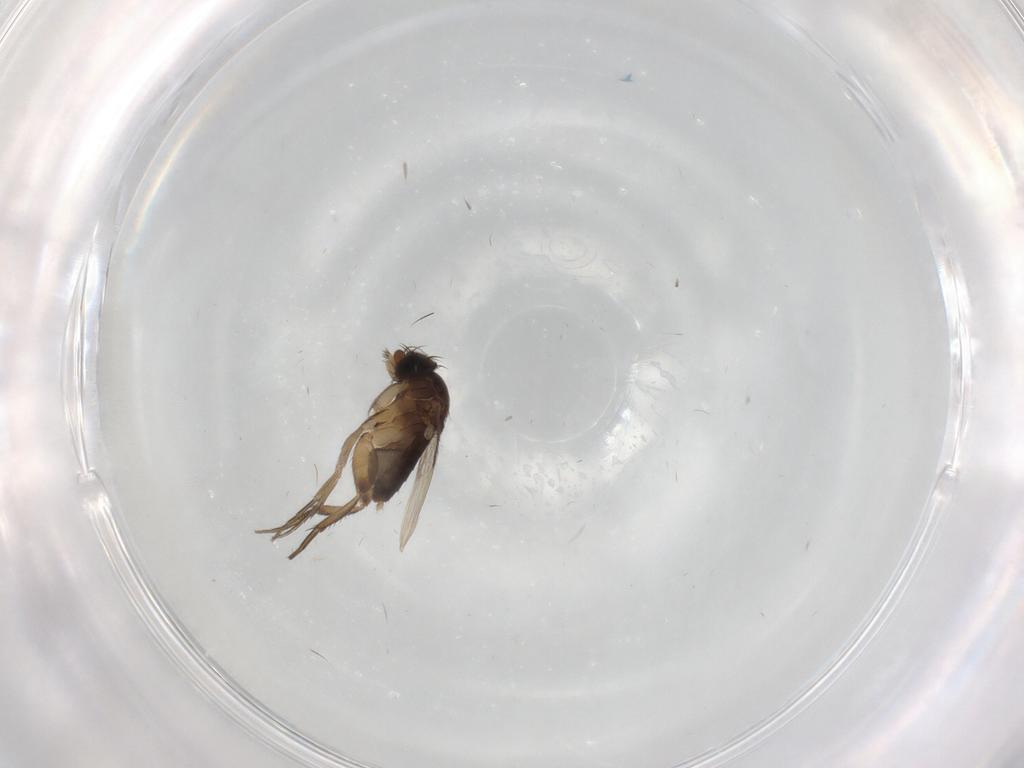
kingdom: Animalia
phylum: Arthropoda
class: Insecta
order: Diptera
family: Phoridae
